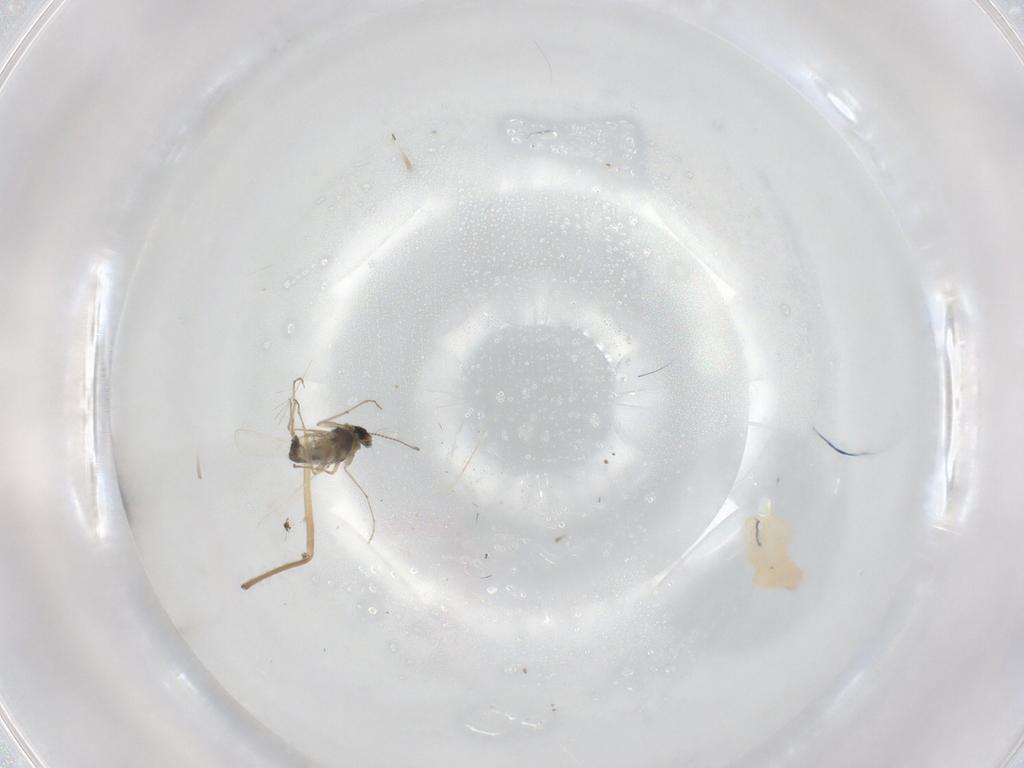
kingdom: Animalia
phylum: Arthropoda
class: Insecta
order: Diptera
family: Chironomidae
